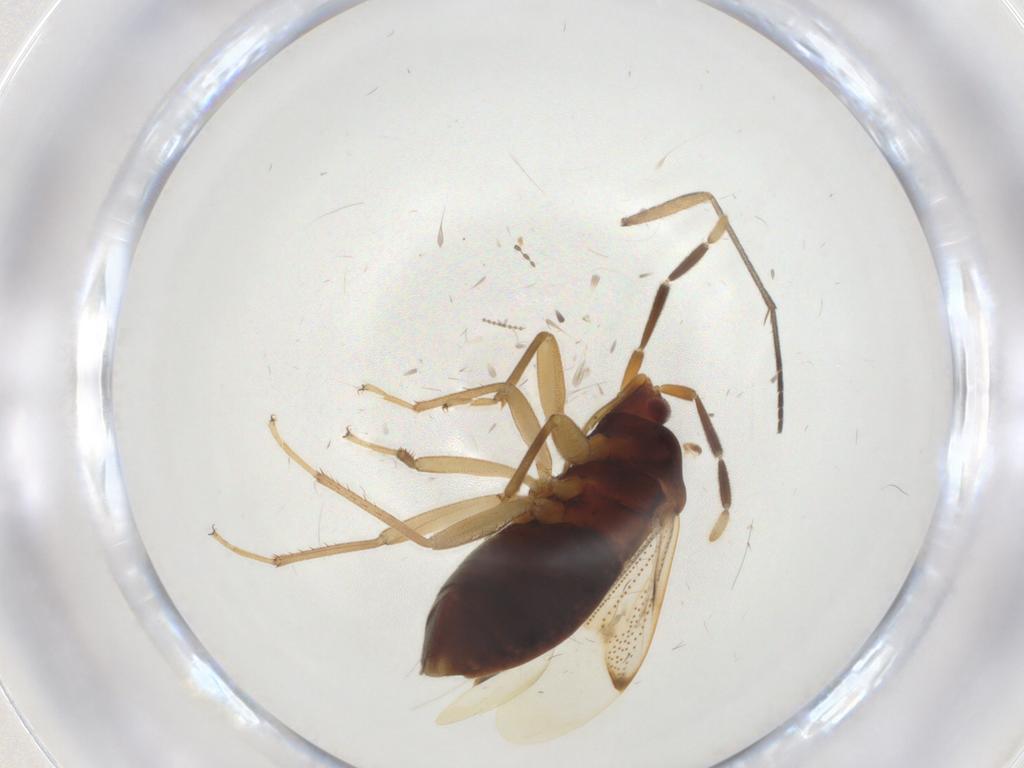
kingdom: Animalia
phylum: Arthropoda
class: Insecta
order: Hemiptera
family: Rhyparochromidae
